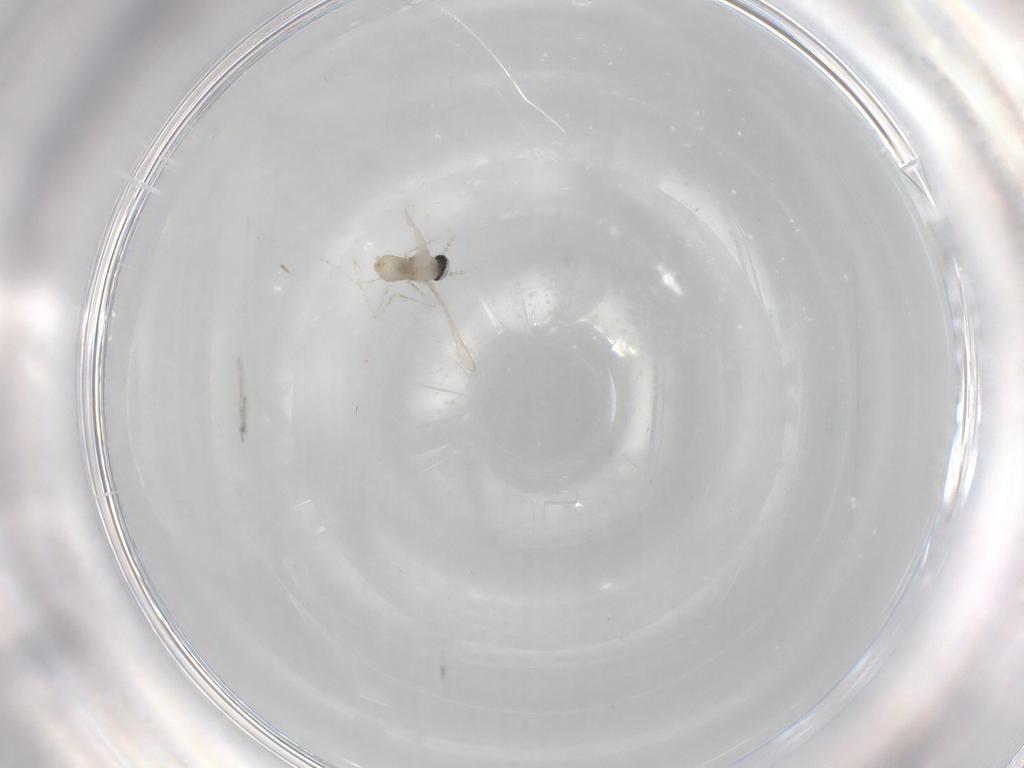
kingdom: Animalia
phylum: Arthropoda
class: Insecta
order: Diptera
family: Cecidomyiidae
